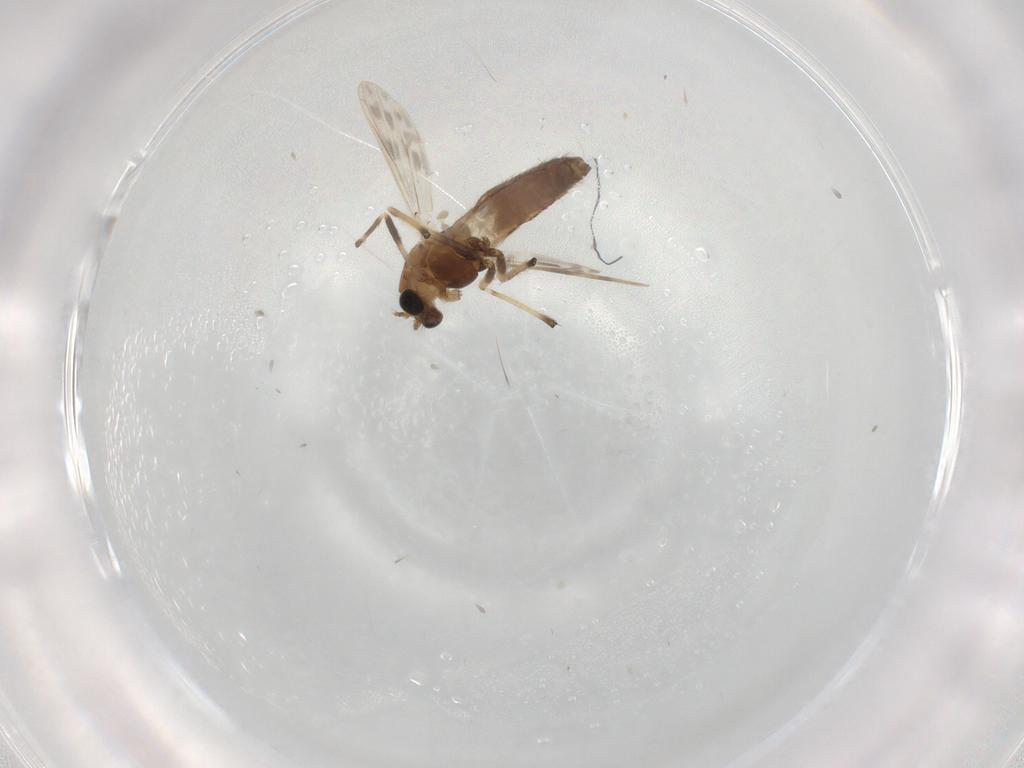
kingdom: Animalia
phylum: Arthropoda
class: Insecta
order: Diptera
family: Chironomidae
